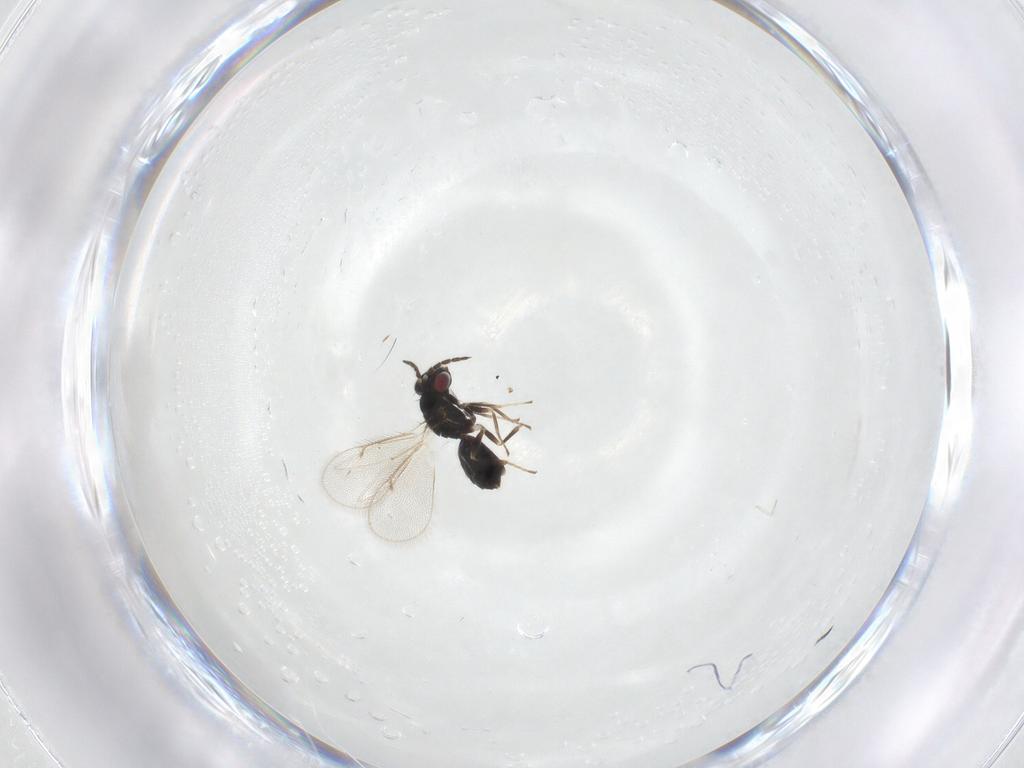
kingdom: Animalia
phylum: Arthropoda
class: Insecta
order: Hymenoptera
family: Eulophidae
